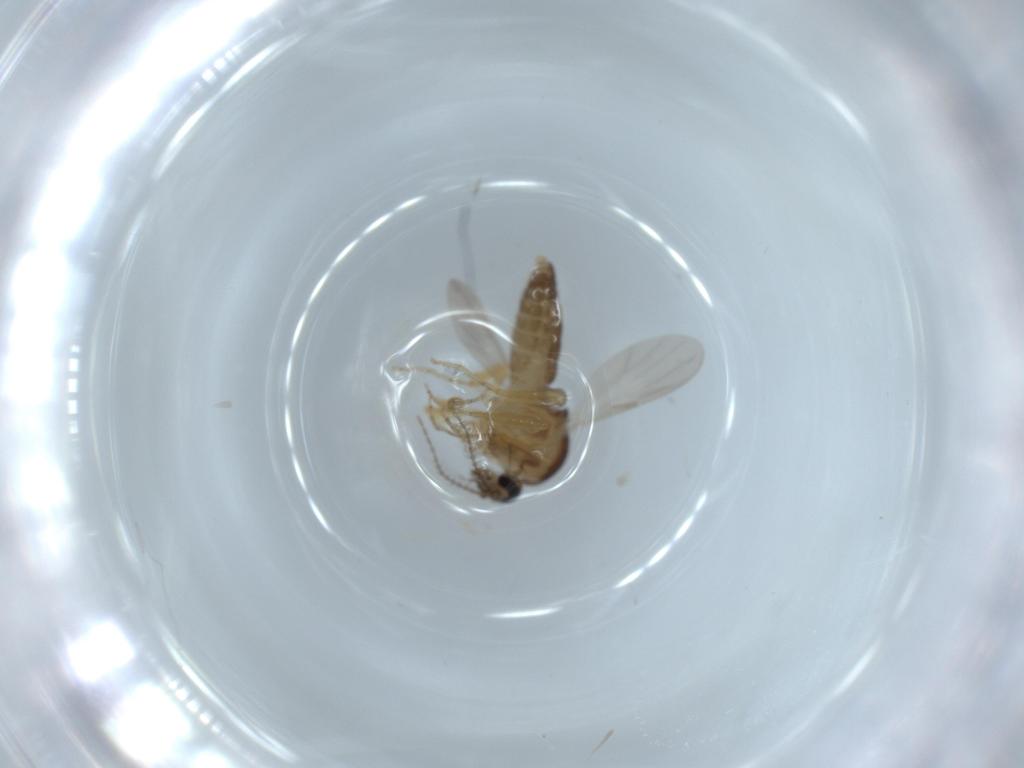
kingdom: Animalia
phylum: Arthropoda
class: Insecta
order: Diptera
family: Ceratopogonidae
